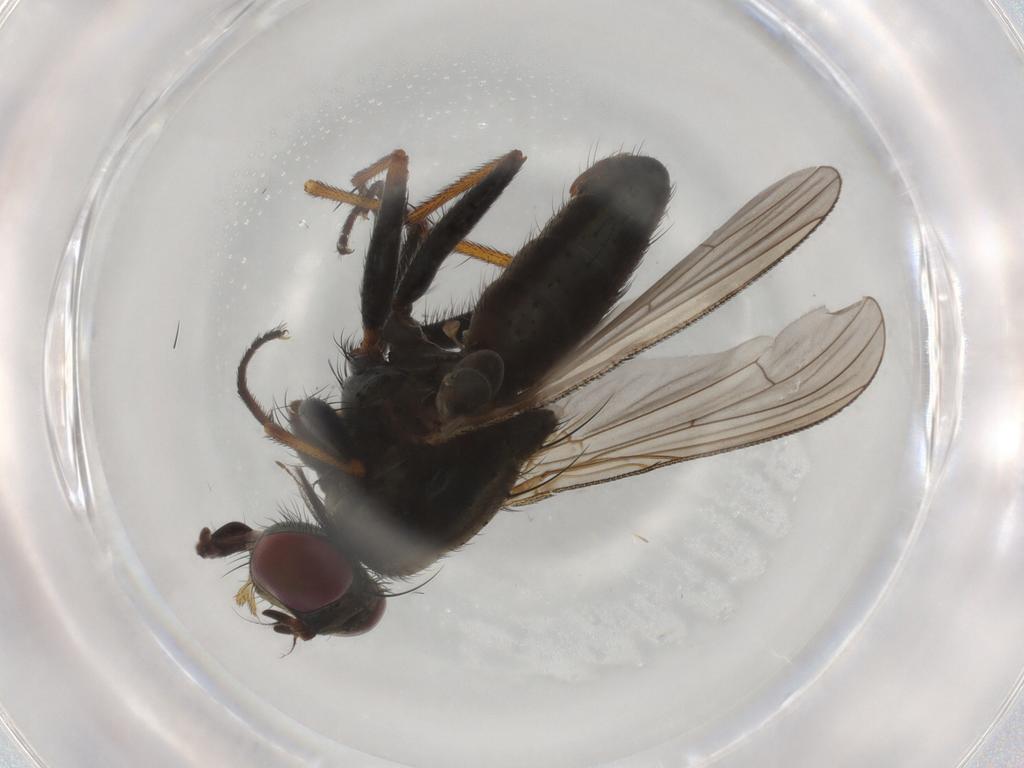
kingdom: Animalia
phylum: Arthropoda
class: Insecta
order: Diptera
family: Muscidae
